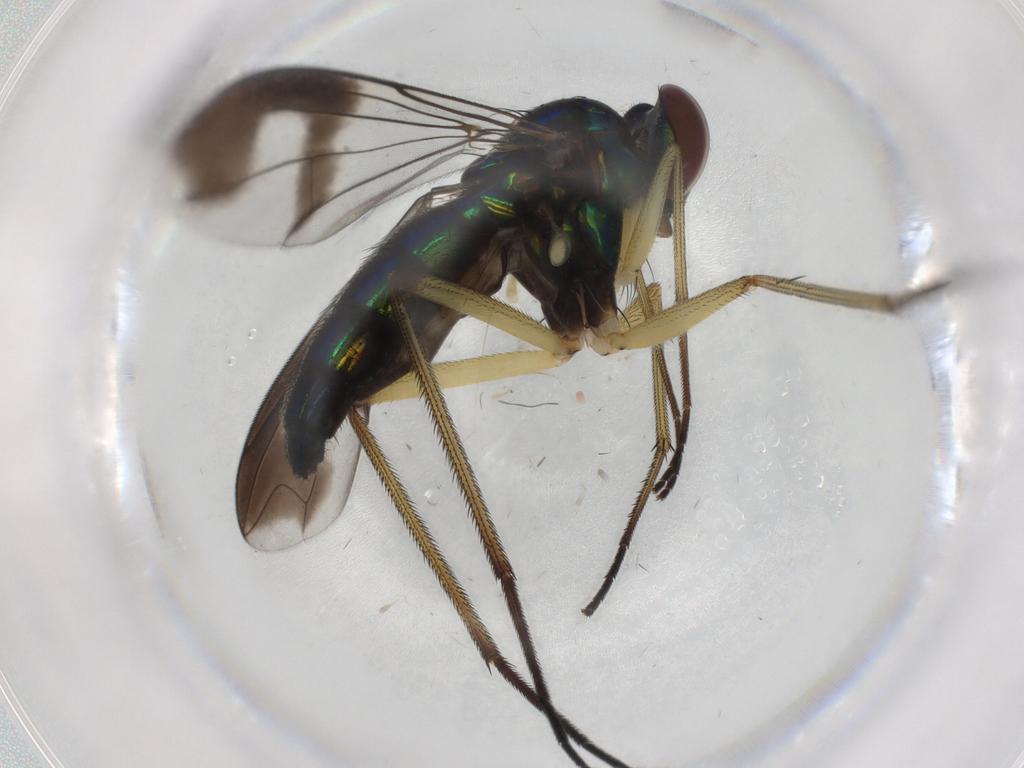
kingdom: Animalia
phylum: Arthropoda
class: Insecta
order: Diptera
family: Dolichopodidae
